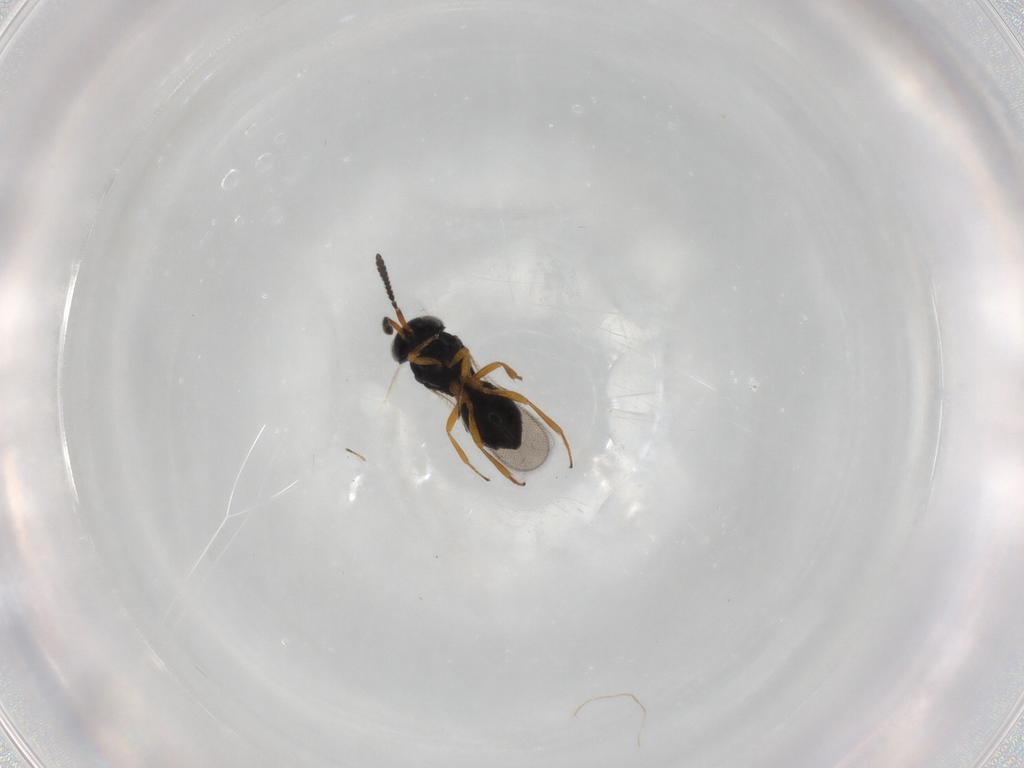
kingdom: Animalia
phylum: Arthropoda
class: Insecta
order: Hymenoptera
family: Scelionidae
